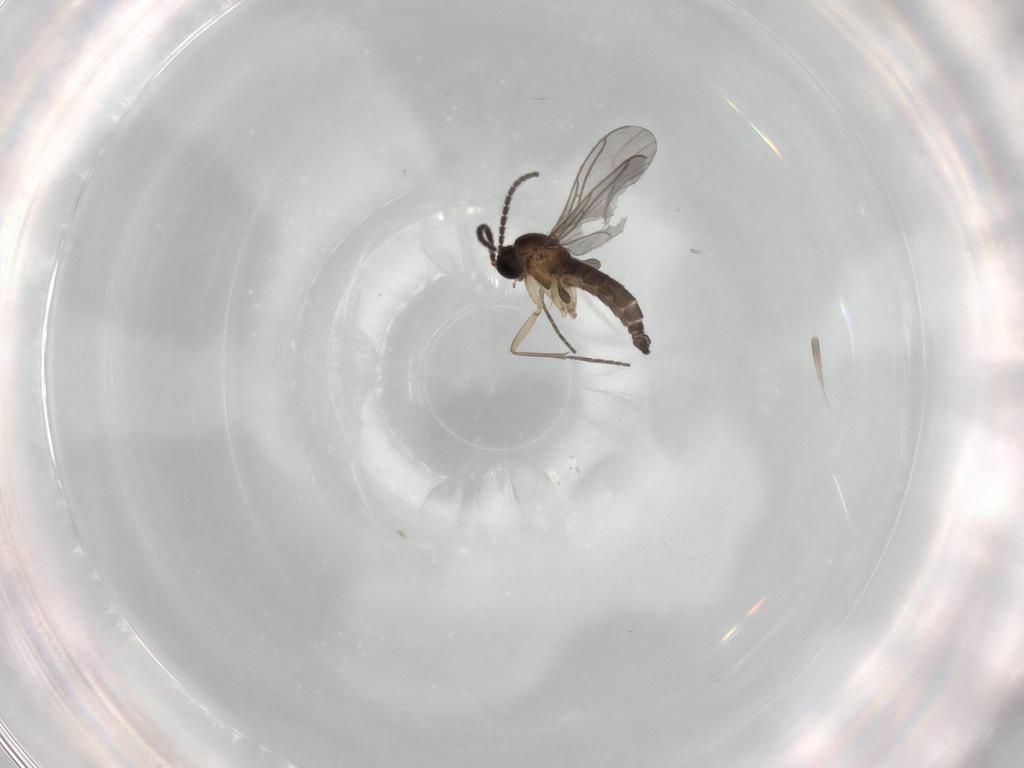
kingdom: Animalia
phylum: Arthropoda
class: Insecta
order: Diptera
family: Sciaridae
